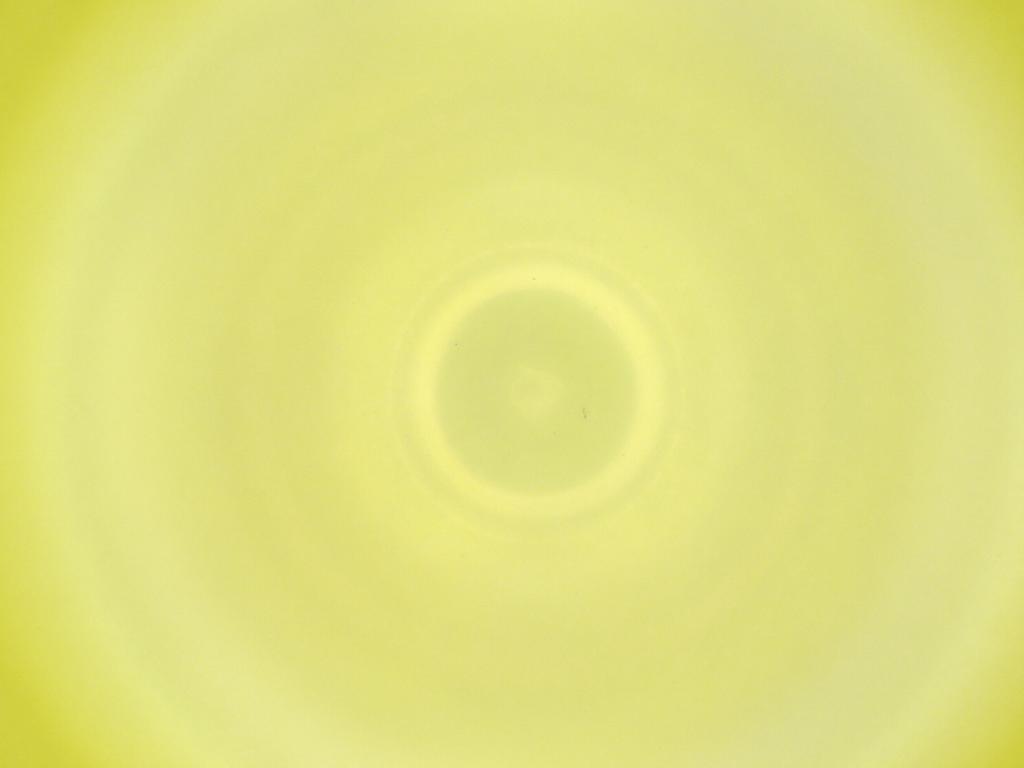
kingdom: Animalia
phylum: Arthropoda
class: Insecta
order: Diptera
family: Cecidomyiidae
